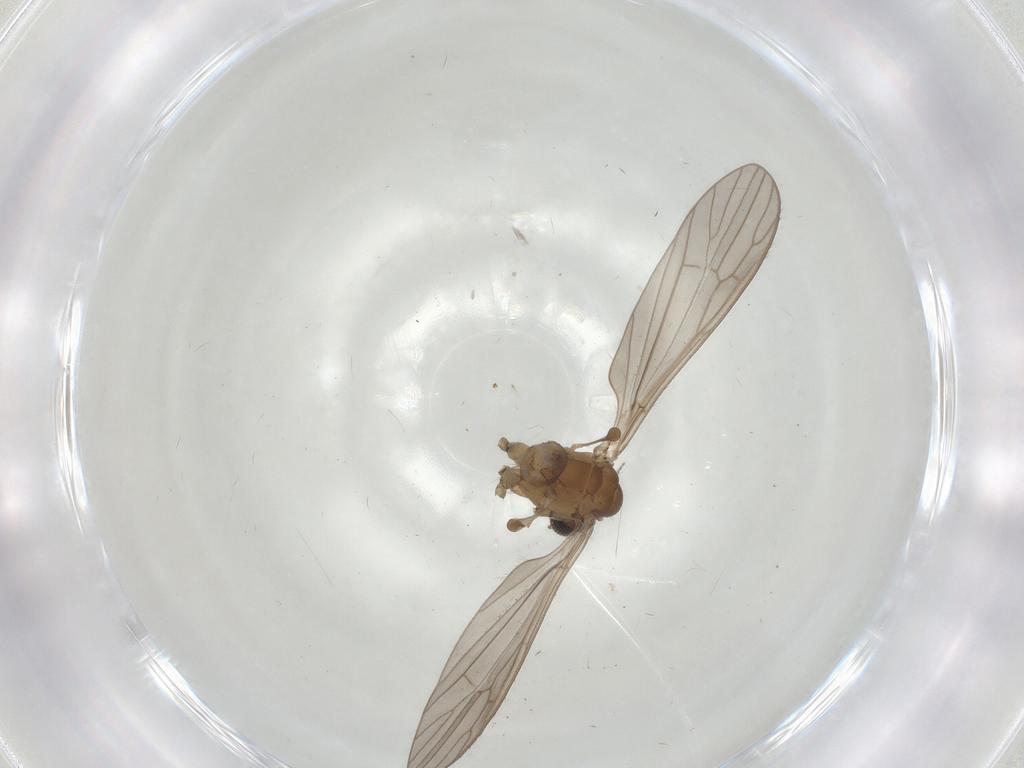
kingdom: Animalia
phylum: Arthropoda
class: Insecta
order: Diptera
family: Limoniidae
